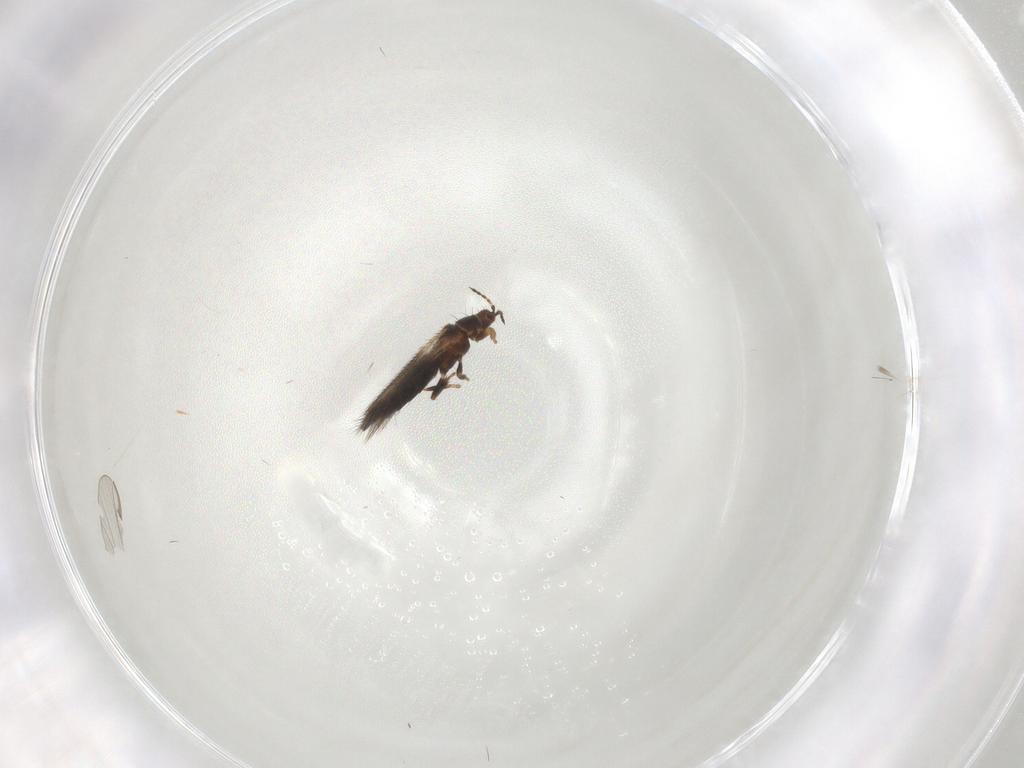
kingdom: Animalia
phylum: Arthropoda
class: Insecta
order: Thysanoptera
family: Thripidae
